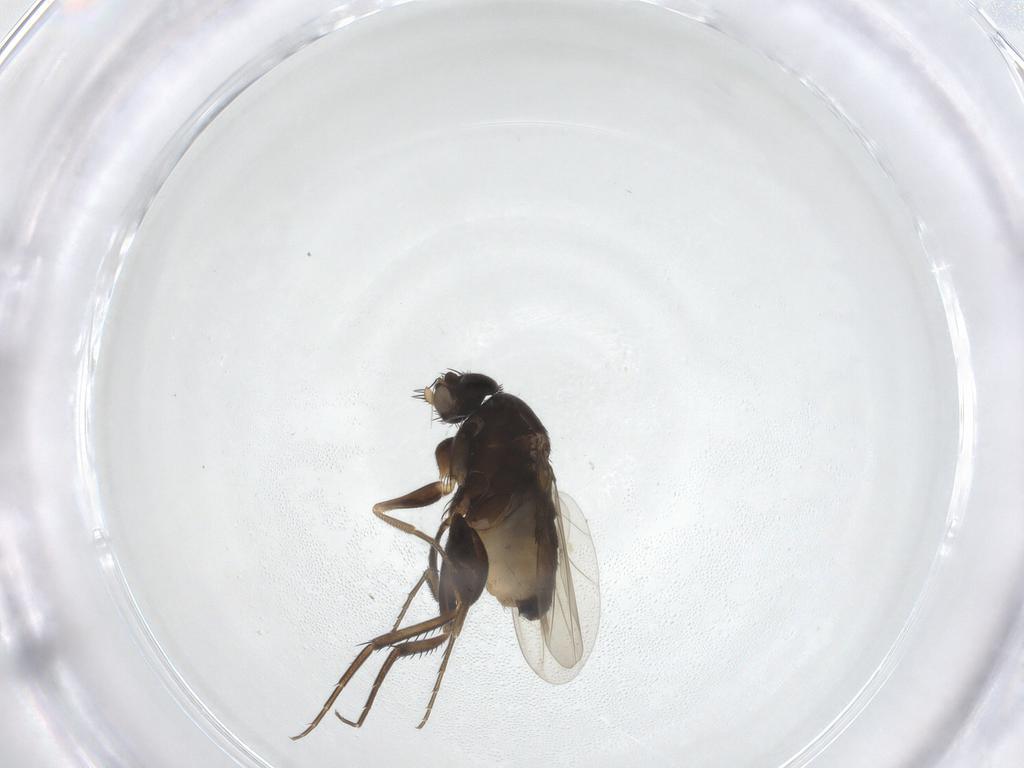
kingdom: Animalia
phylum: Arthropoda
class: Insecta
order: Diptera
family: Phoridae
